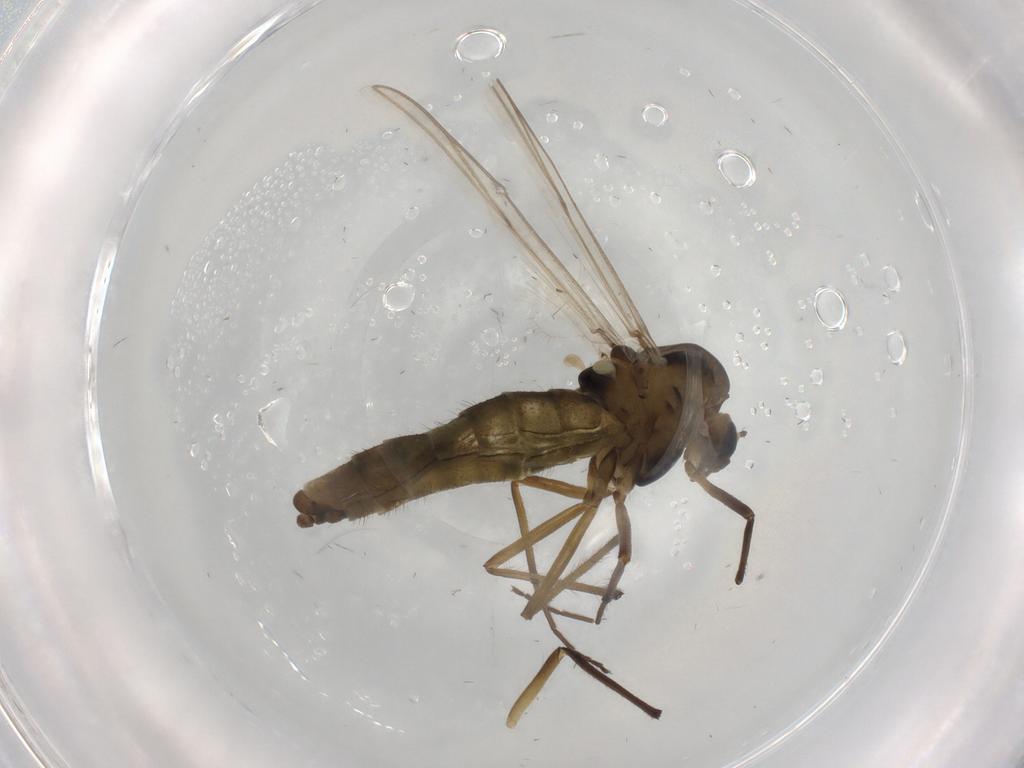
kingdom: Animalia
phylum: Arthropoda
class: Insecta
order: Diptera
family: Chironomidae
